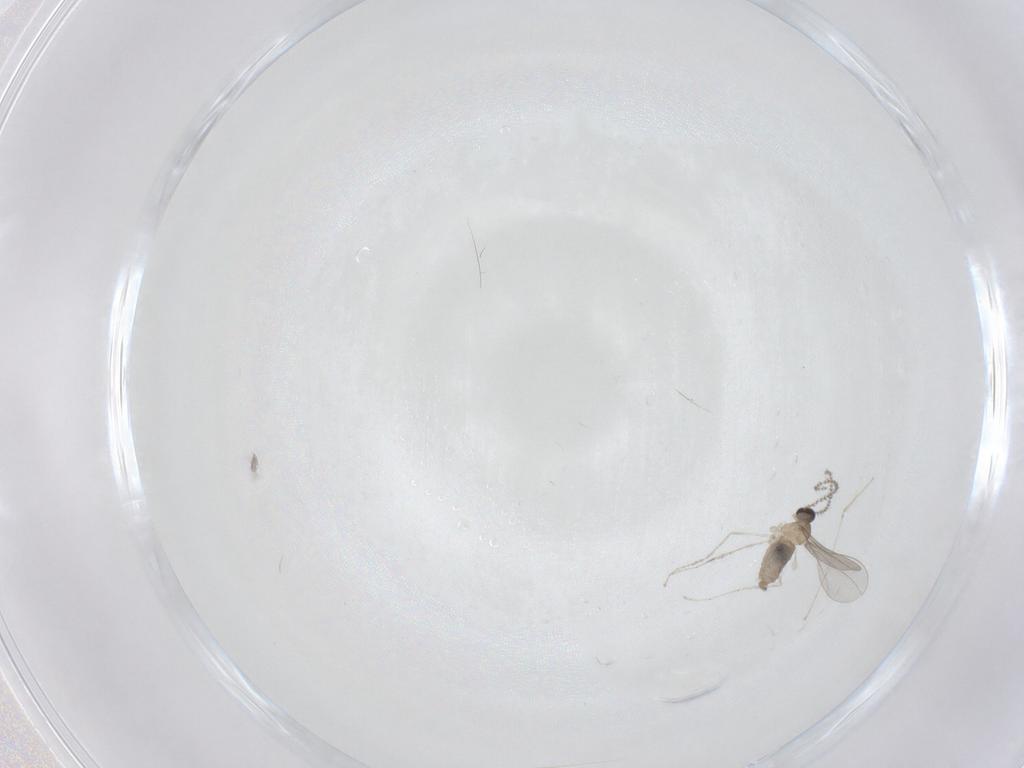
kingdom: Animalia
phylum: Arthropoda
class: Insecta
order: Diptera
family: Cecidomyiidae
